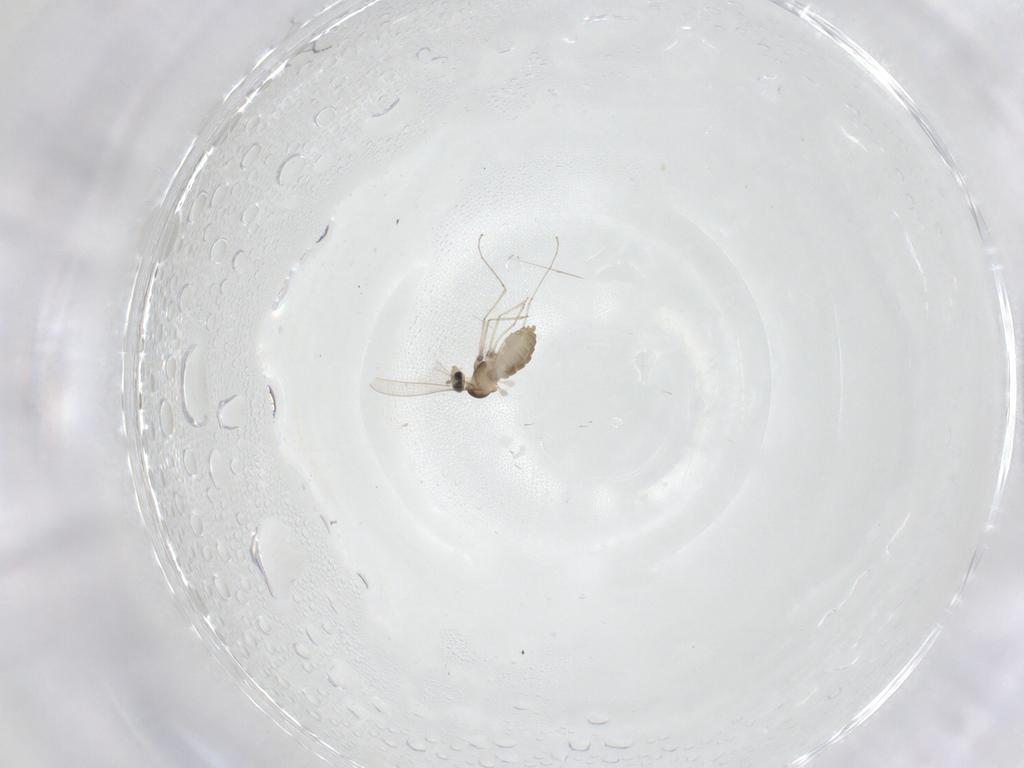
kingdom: Animalia
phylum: Arthropoda
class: Insecta
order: Diptera
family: Cecidomyiidae
